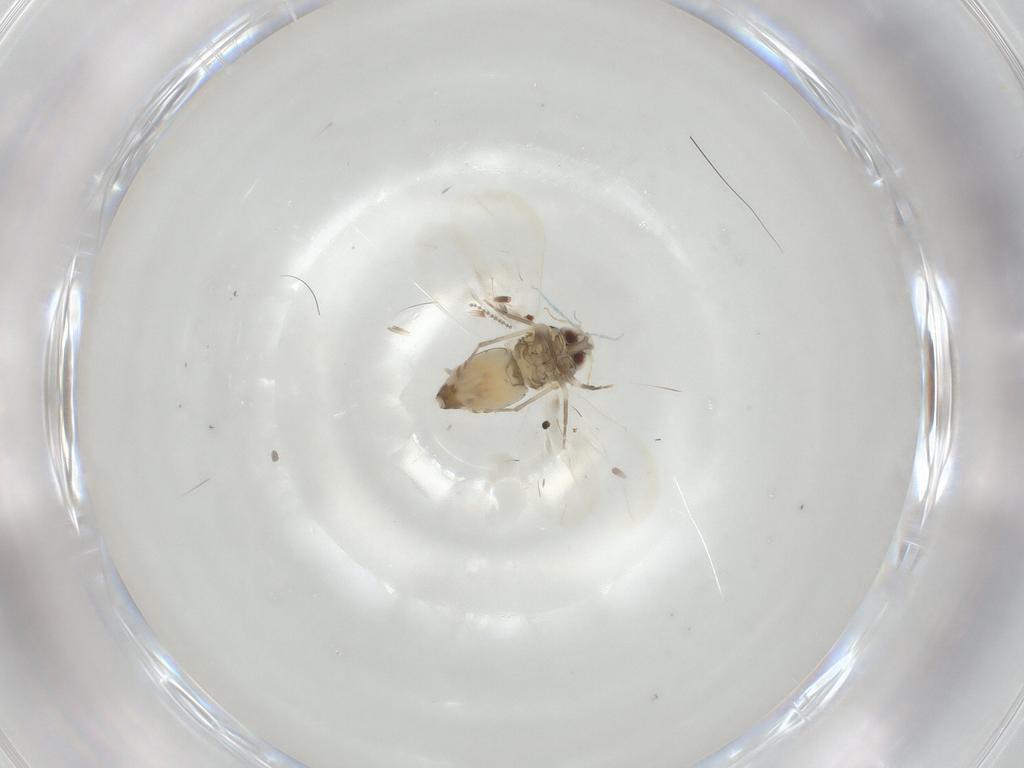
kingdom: Animalia
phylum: Arthropoda
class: Insecta
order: Hemiptera
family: Aleyrodidae
